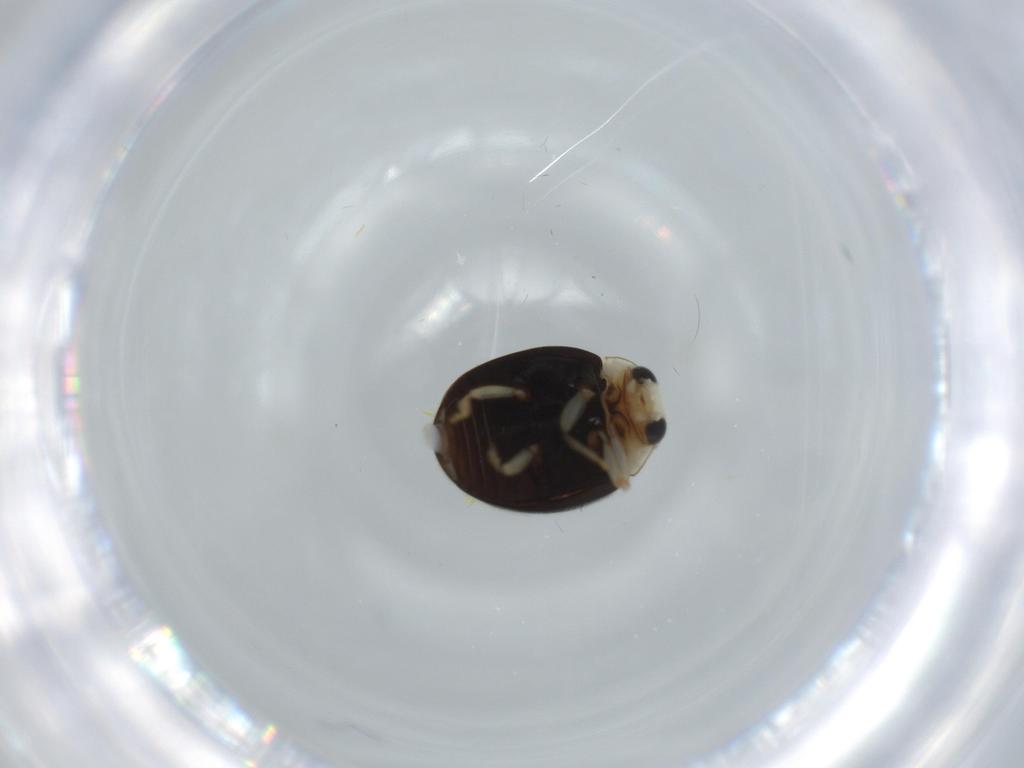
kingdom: Animalia
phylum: Arthropoda
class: Insecta
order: Coleoptera
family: Coccinellidae
